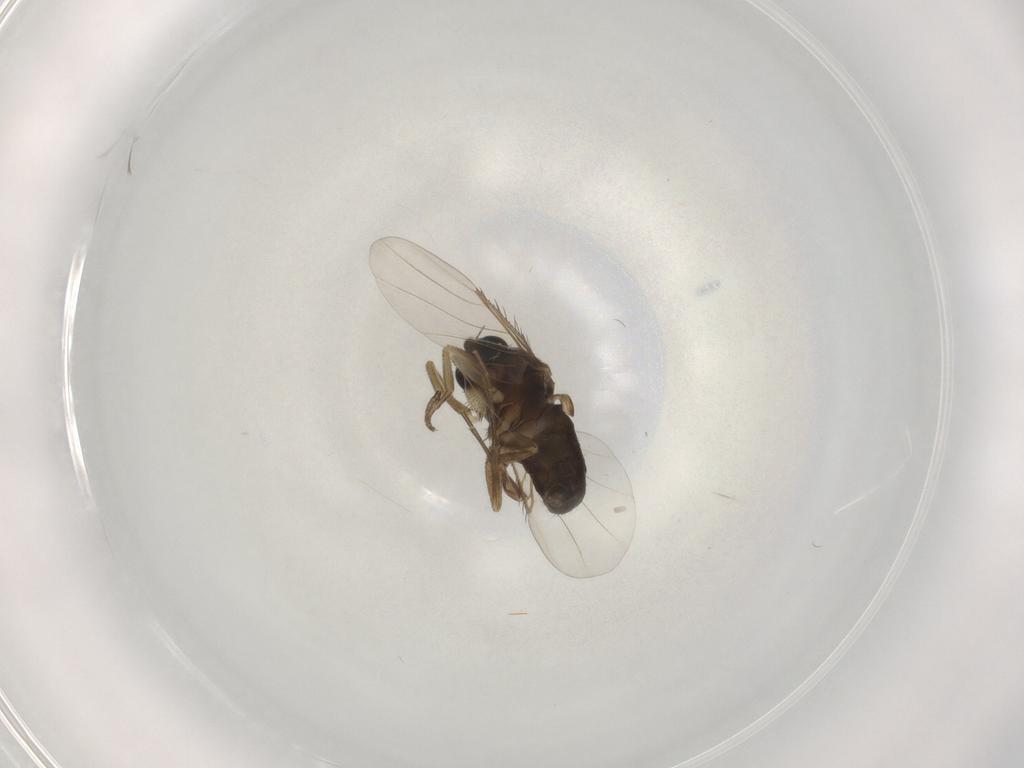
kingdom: Animalia
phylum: Arthropoda
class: Insecta
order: Diptera
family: Phoridae
